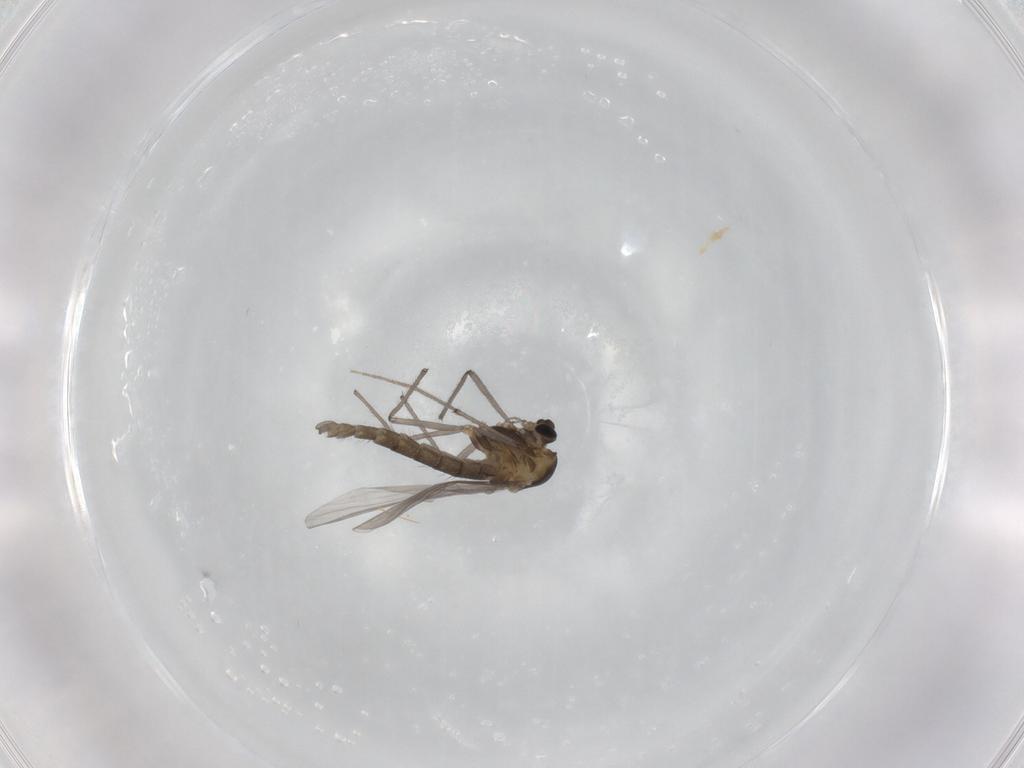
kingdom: Animalia
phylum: Arthropoda
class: Insecta
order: Diptera
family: Chironomidae
